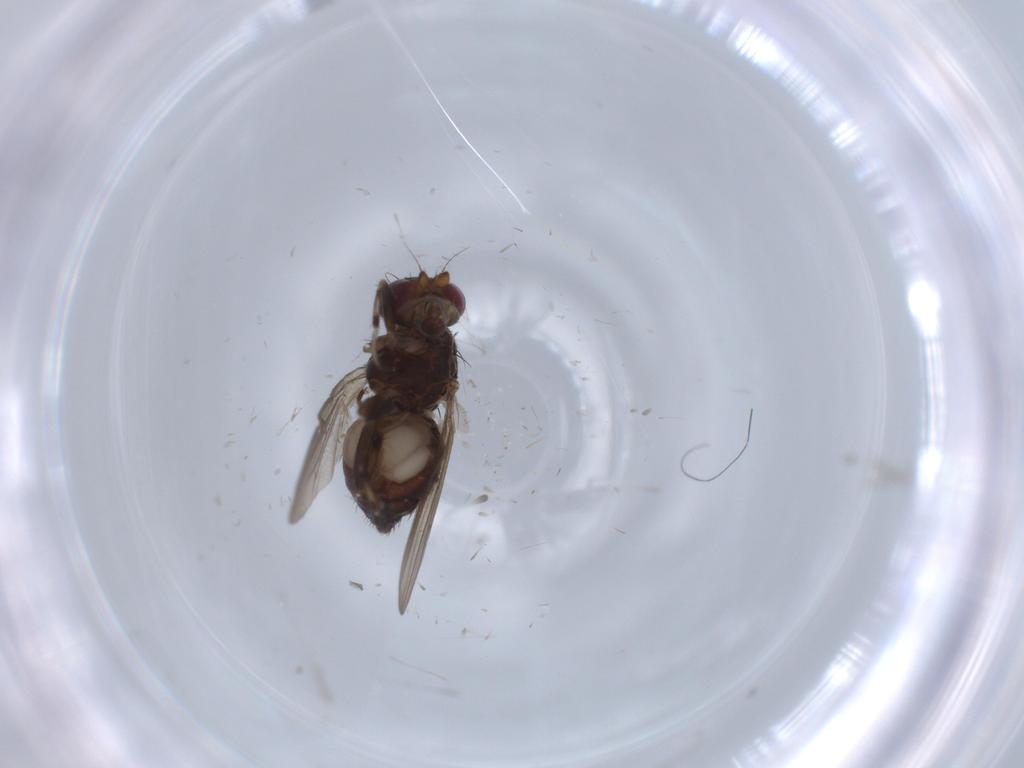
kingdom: Animalia
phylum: Arthropoda
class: Insecta
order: Diptera
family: Heleomyzidae
